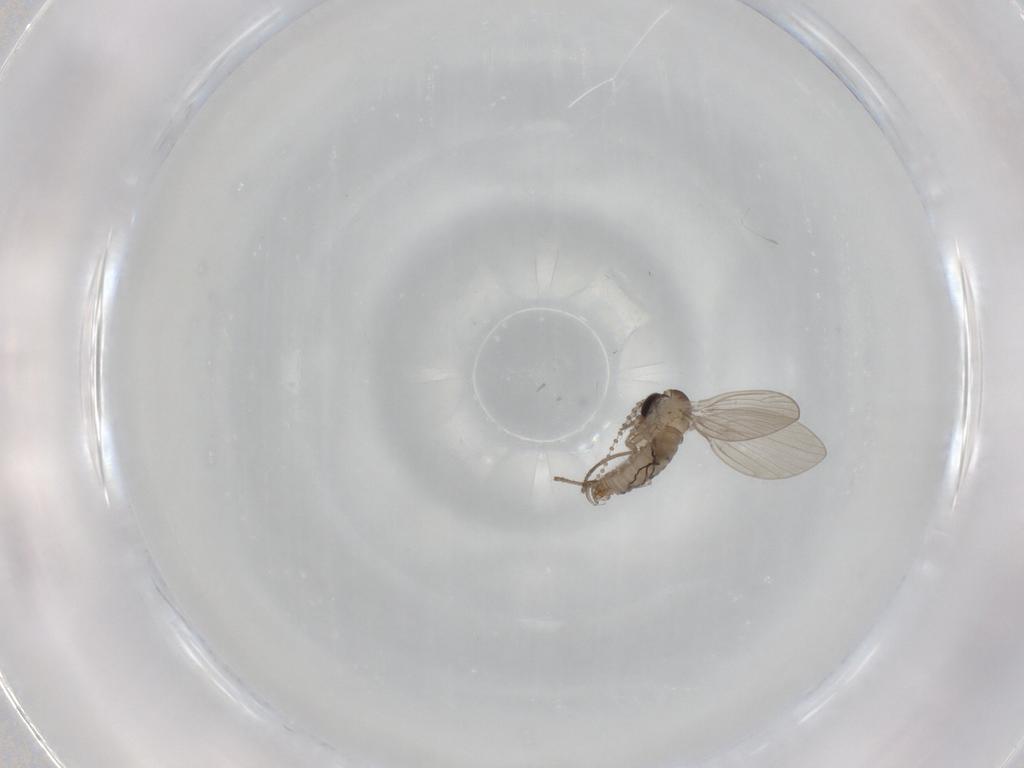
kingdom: Animalia
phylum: Arthropoda
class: Insecta
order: Diptera
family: Psychodidae
